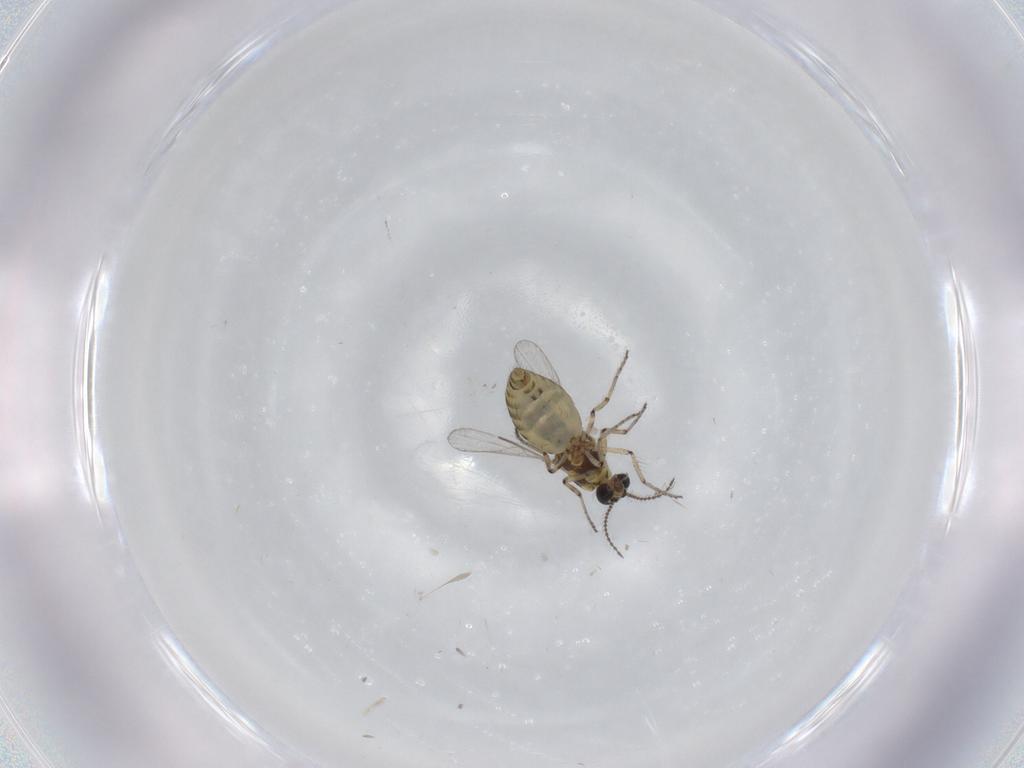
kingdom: Animalia
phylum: Arthropoda
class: Insecta
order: Diptera
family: Ceratopogonidae
